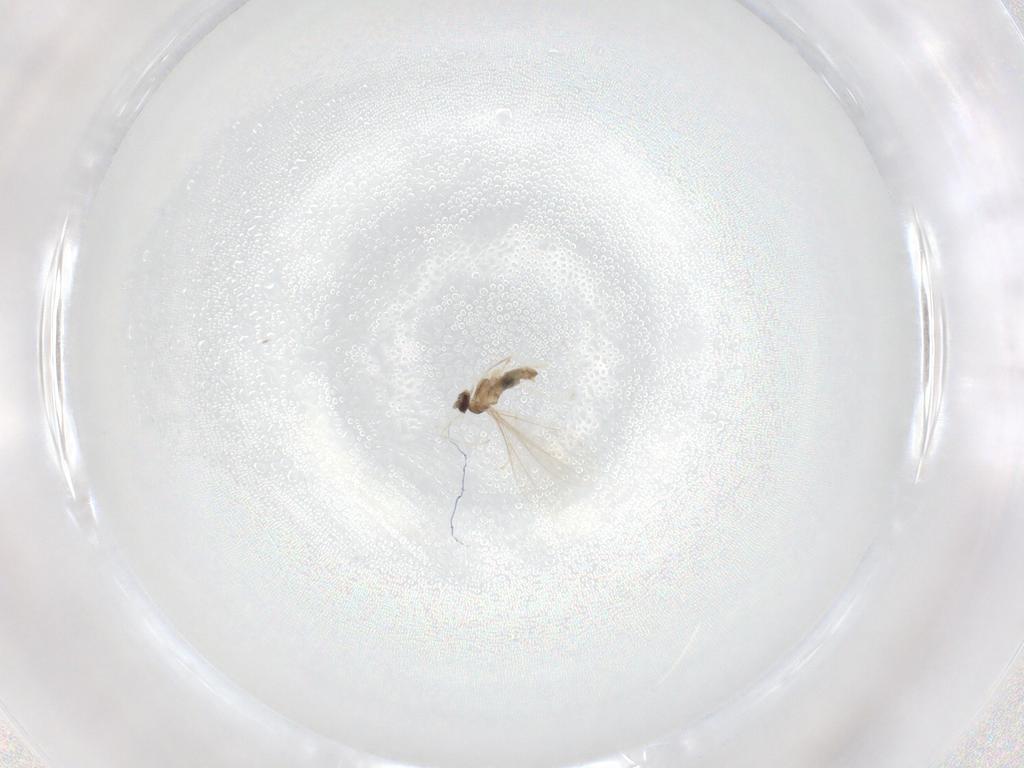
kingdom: Animalia
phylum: Arthropoda
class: Insecta
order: Diptera
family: Cecidomyiidae
